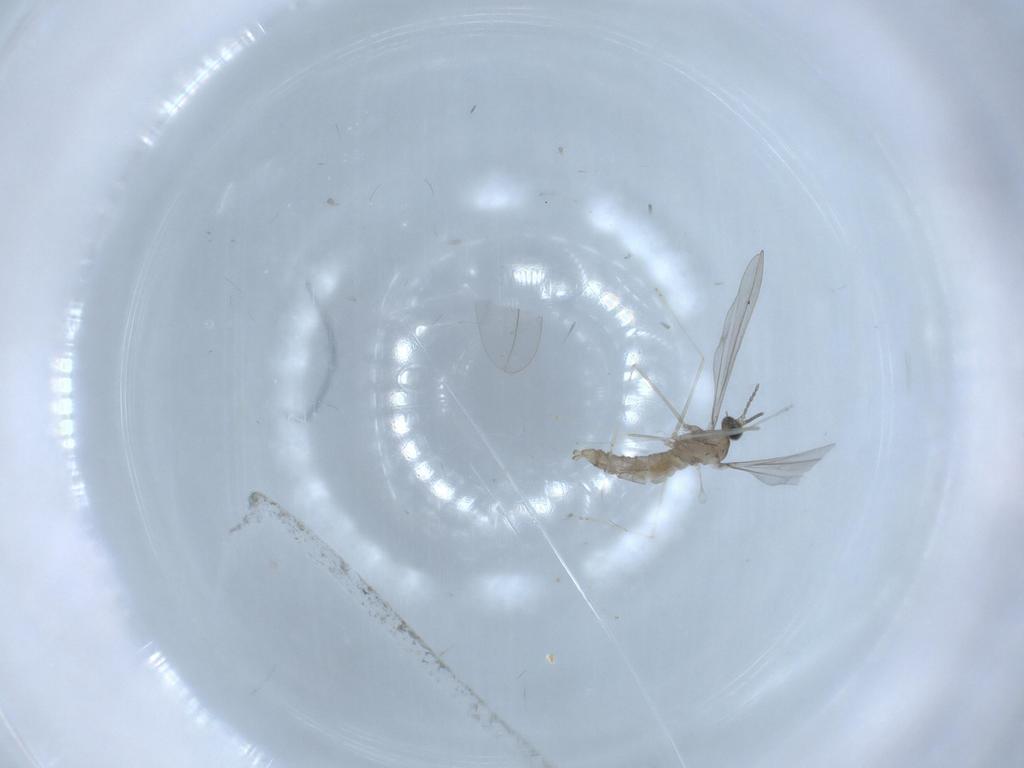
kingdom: Animalia
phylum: Arthropoda
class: Insecta
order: Diptera
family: Cecidomyiidae
